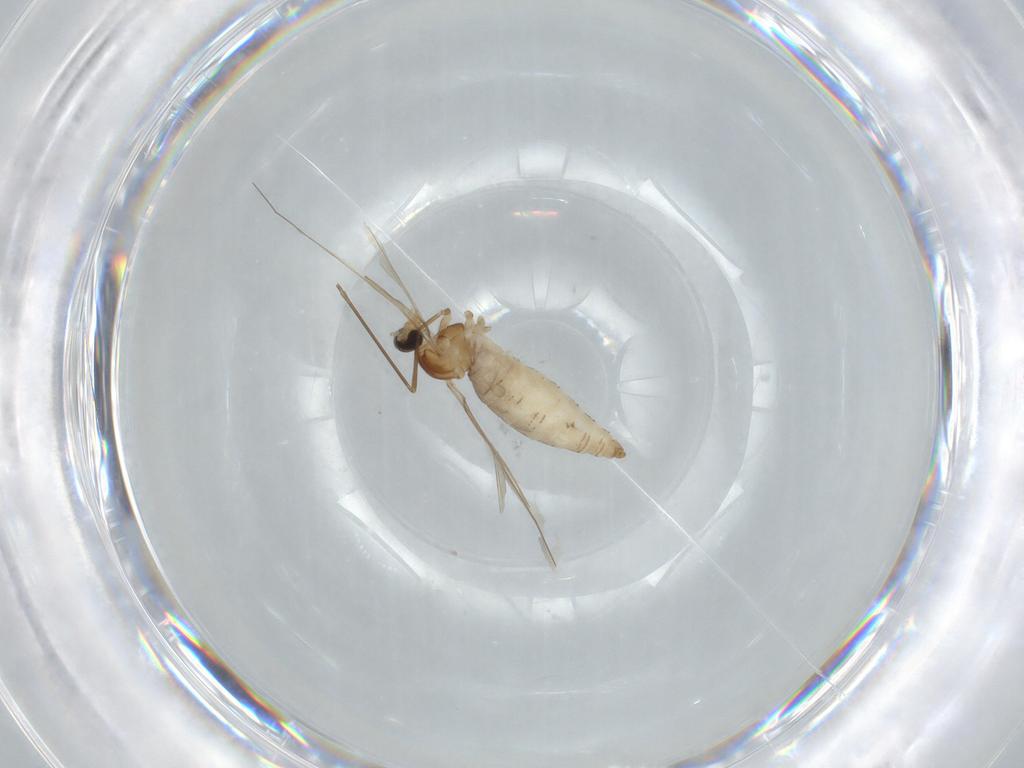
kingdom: Animalia
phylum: Arthropoda
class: Insecta
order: Diptera
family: Cecidomyiidae
